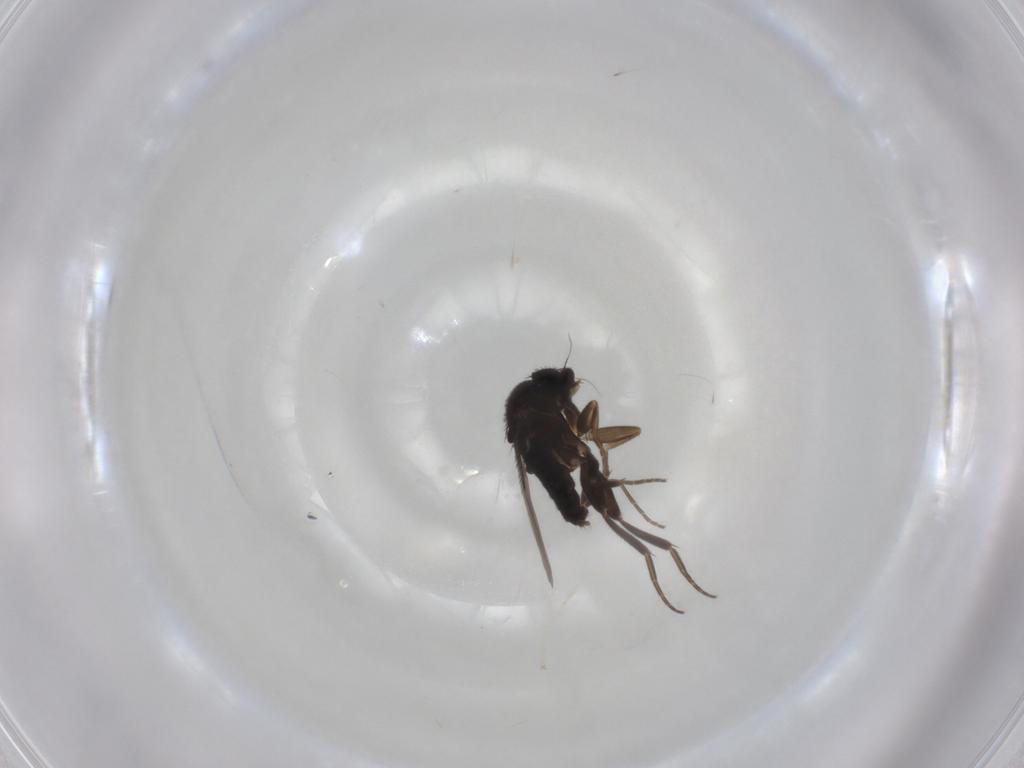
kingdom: Animalia
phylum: Arthropoda
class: Insecta
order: Diptera
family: Phoridae
